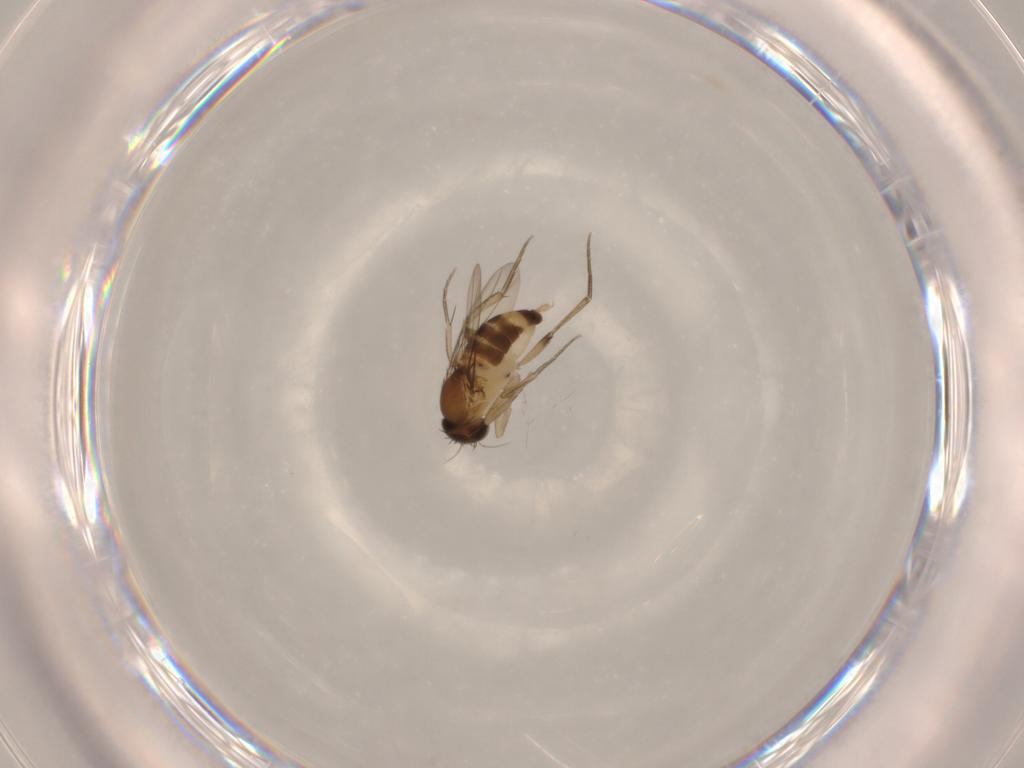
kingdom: Animalia
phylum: Arthropoda
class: Insecta
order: Diptera
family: Phoridae
